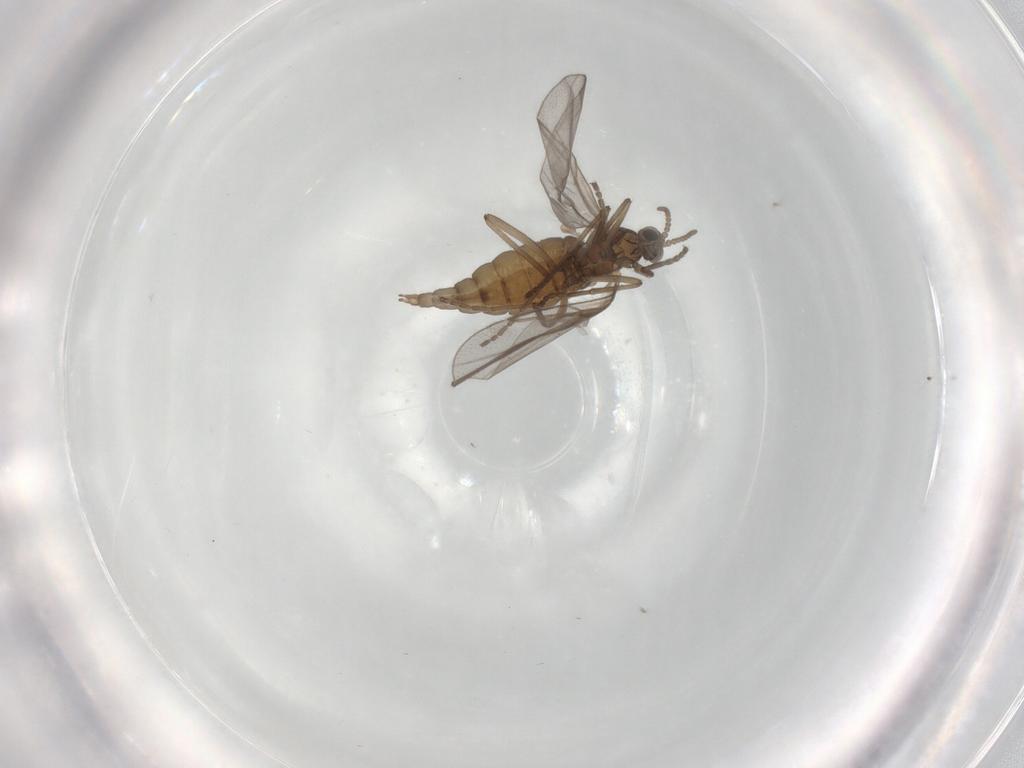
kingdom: Animalia
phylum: Arthropoda
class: Insecta
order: Diptera
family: Cecidomyiidae
